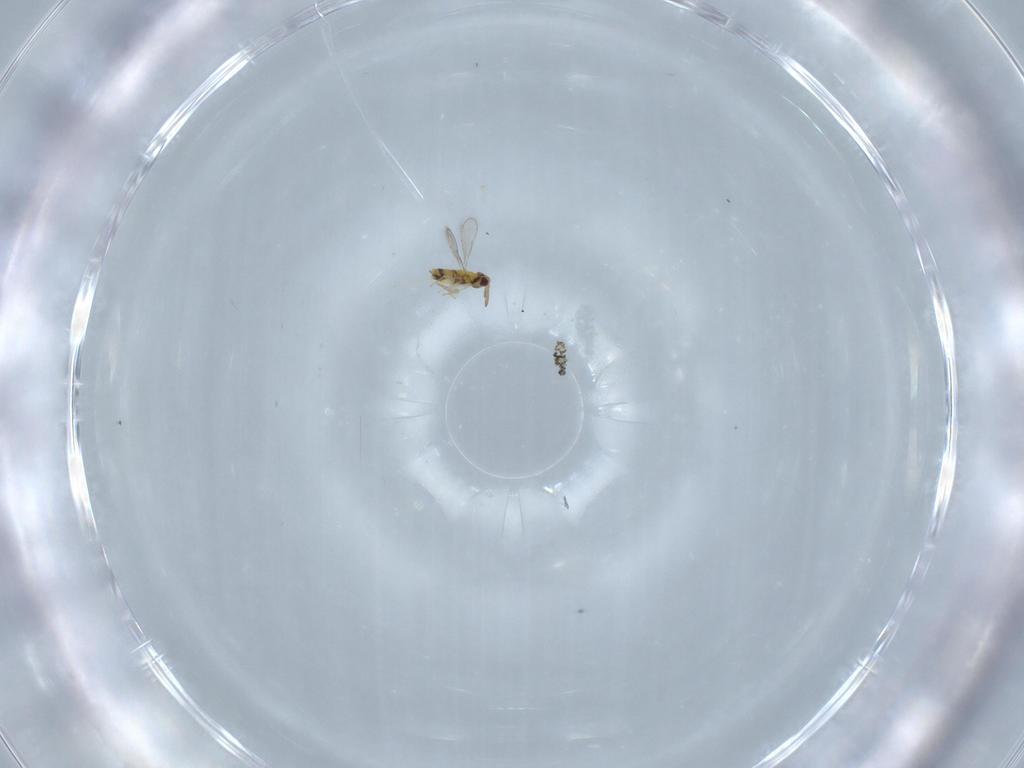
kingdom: Animalia
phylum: Arthropoda
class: Insecta
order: Hymenoptera
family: Aphelinidae
